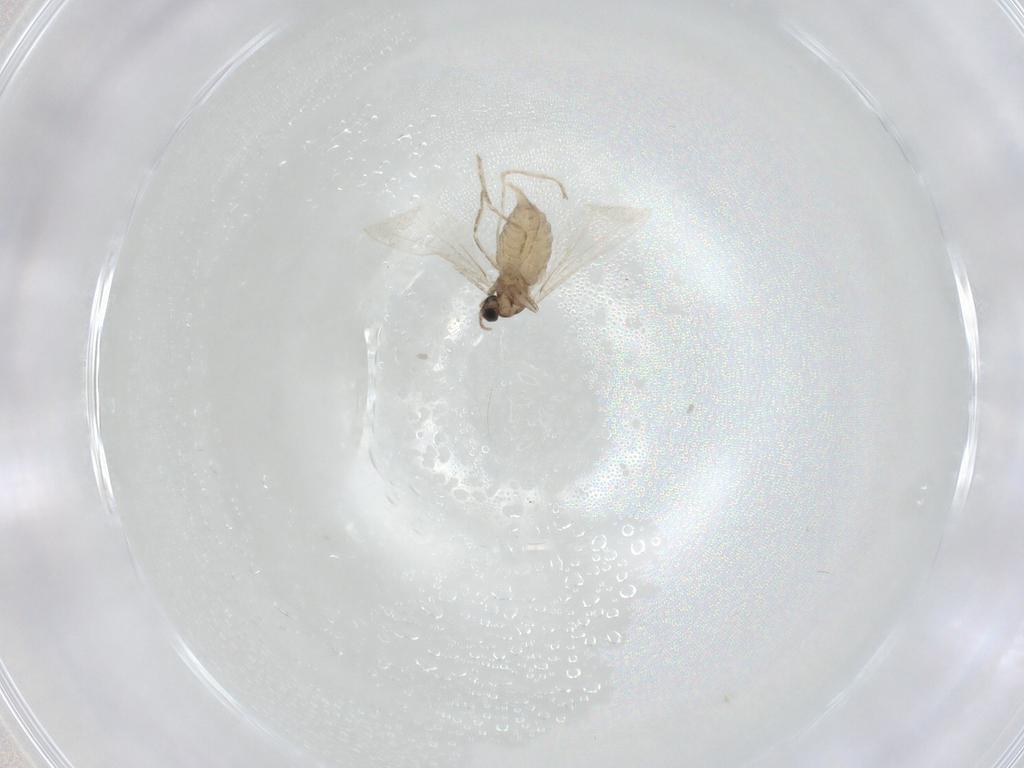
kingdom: Animalia
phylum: Arthropoda
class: Insecta
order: Diptera
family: Cecidomyiidae
